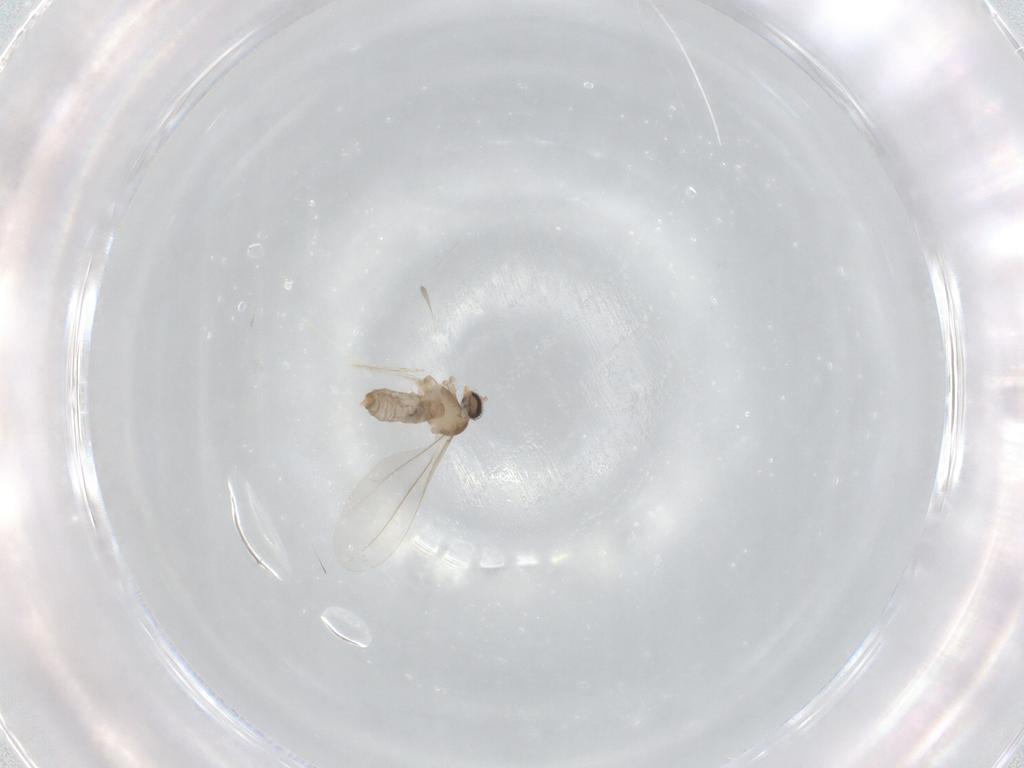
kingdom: Animalia
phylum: Arthropoda
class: Insecta
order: Diptera
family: Cecidomyiidae
